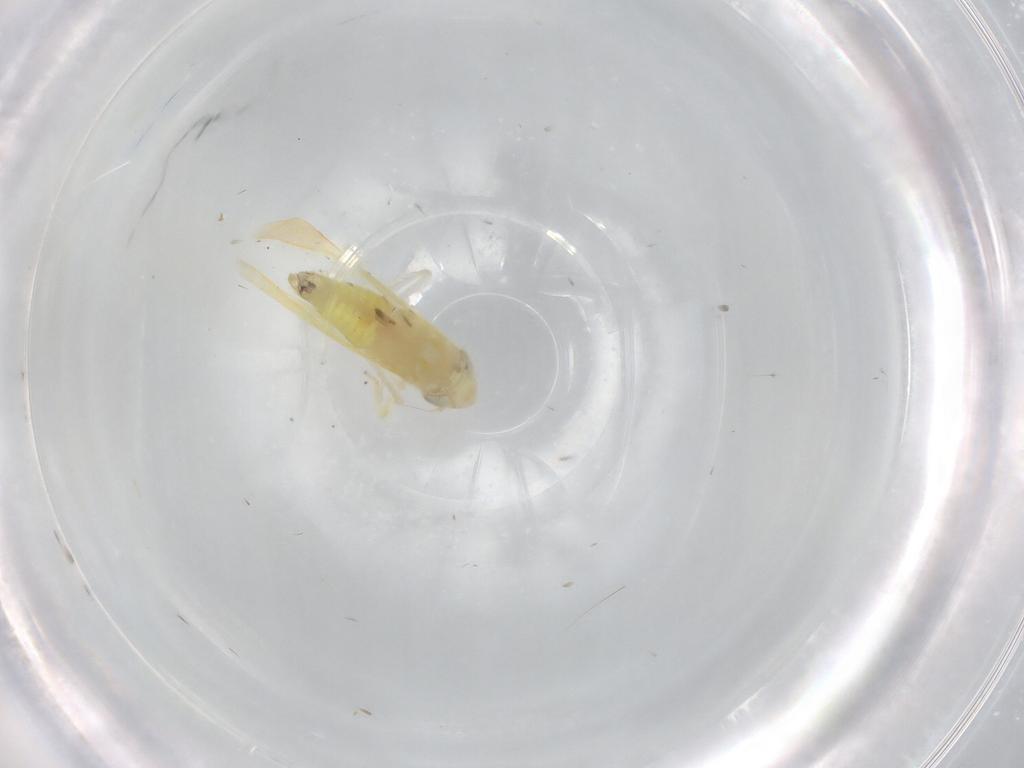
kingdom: Animalia
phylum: Arthropoda
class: Insecta
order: Hemiptera
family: Cicadellidae
